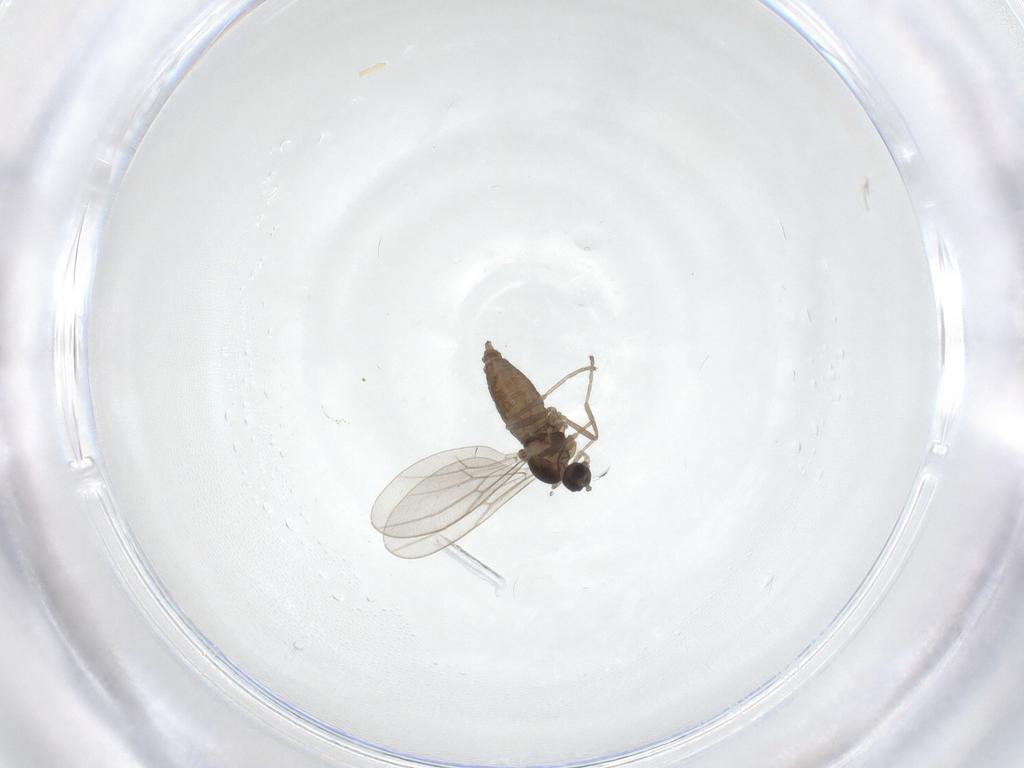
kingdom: Animalia
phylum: Arthropoda
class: Insecta
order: Diptera
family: Cecidomyiidae
